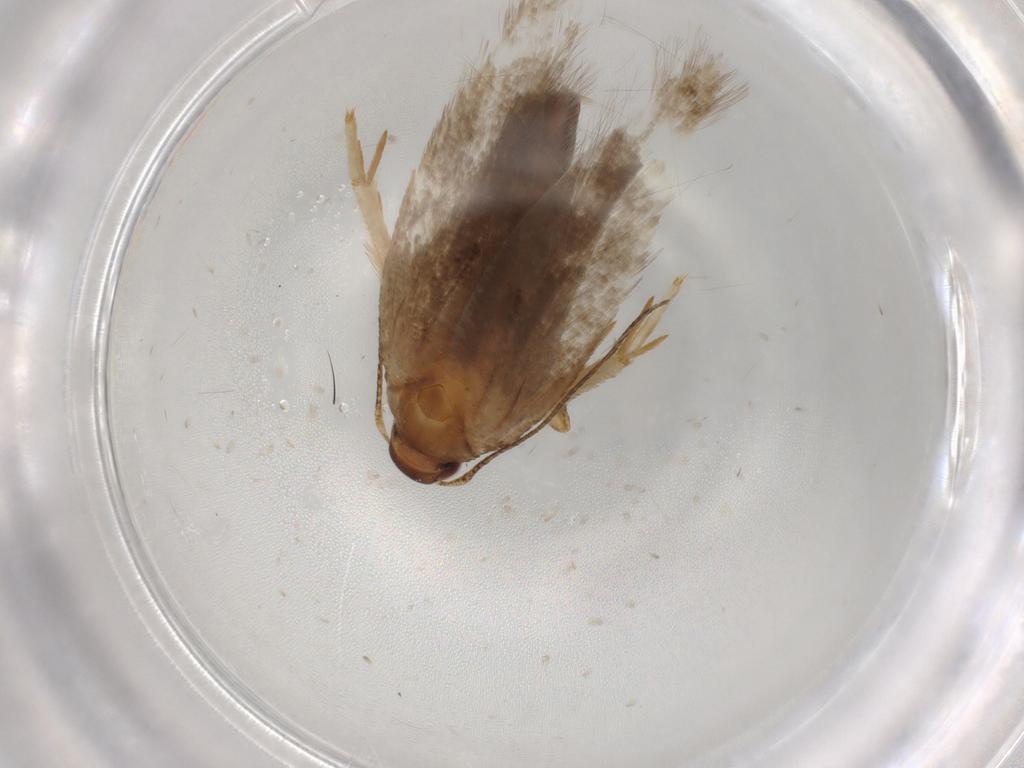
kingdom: Animalia
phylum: Arthropoda
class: Insecta
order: Lepidoptera
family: Gelechiidae
